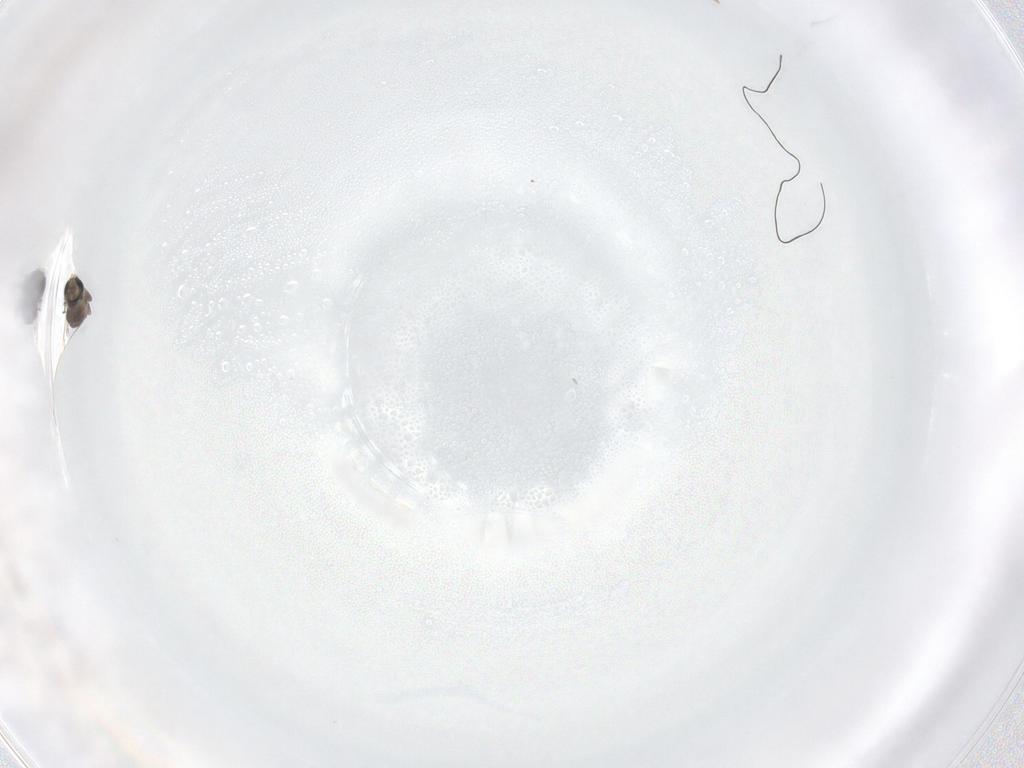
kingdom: Animalia
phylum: Arthropoda
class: Insecta
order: Diptera
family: Cecidomyiidae
